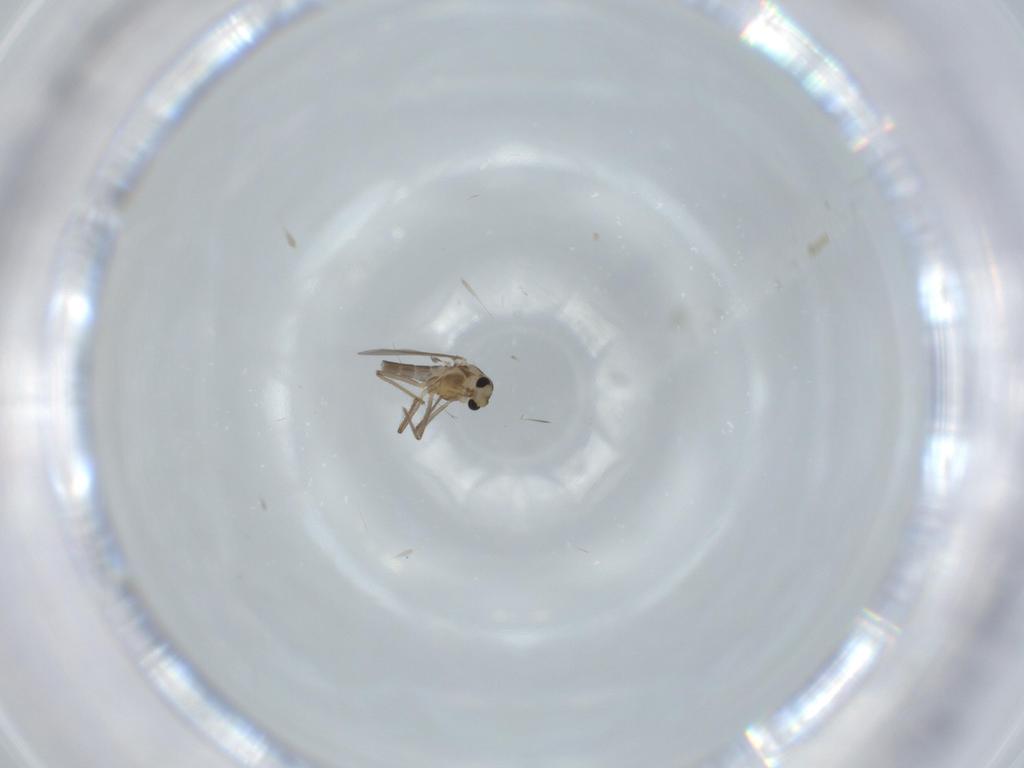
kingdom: Animalia
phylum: Arthropoda
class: Insecta
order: Diptera
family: Chironomidae
